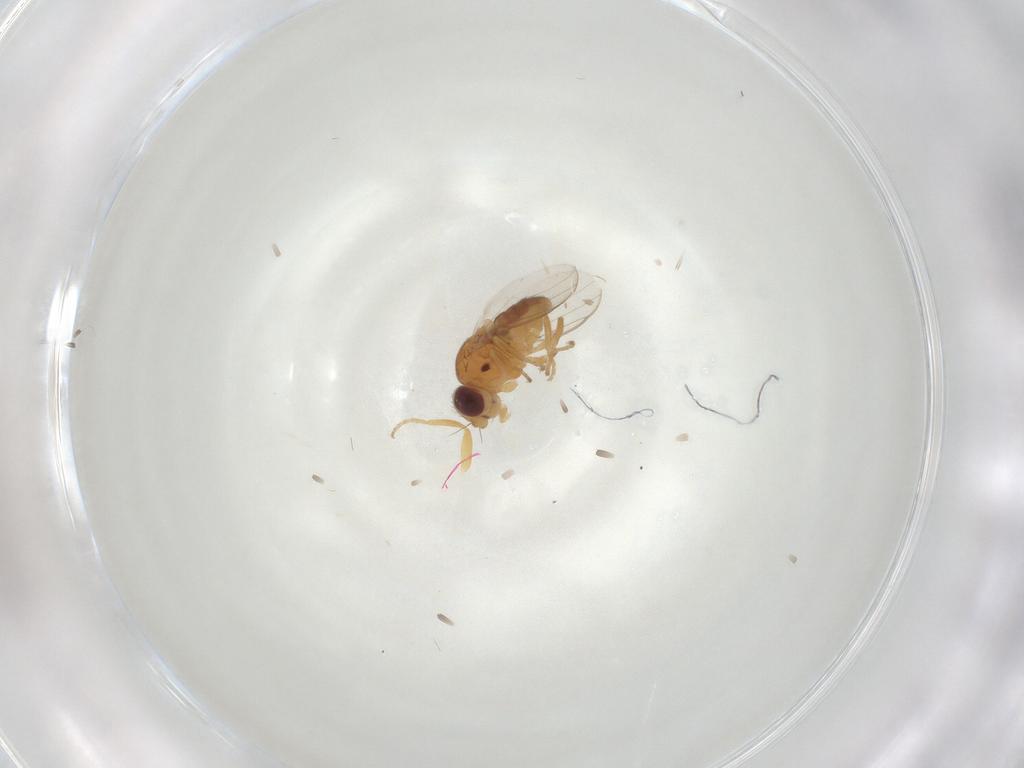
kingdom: Animalia
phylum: Arthropoda
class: Insecta
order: Diptera
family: Chloropidae
